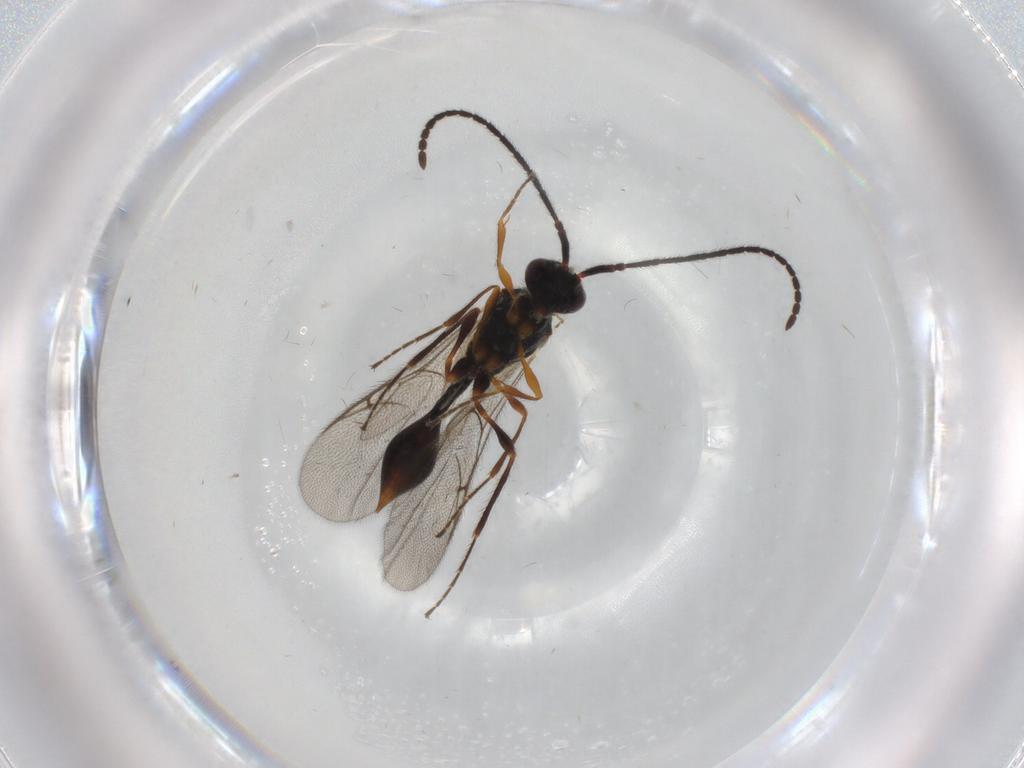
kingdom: Animalia
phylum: Arthropoda
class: Insecta
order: Hymenoptera
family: Diapriidae
